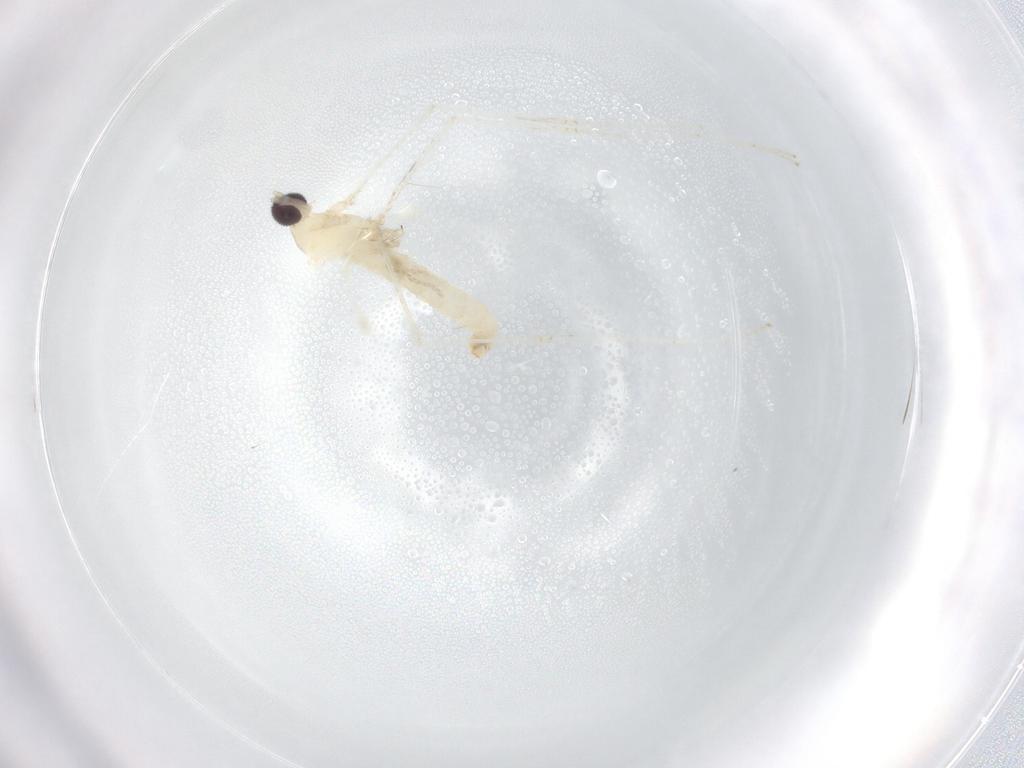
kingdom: Animalia
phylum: Arthropoda
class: Insecta
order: Diptera
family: Cecidomyiidae
